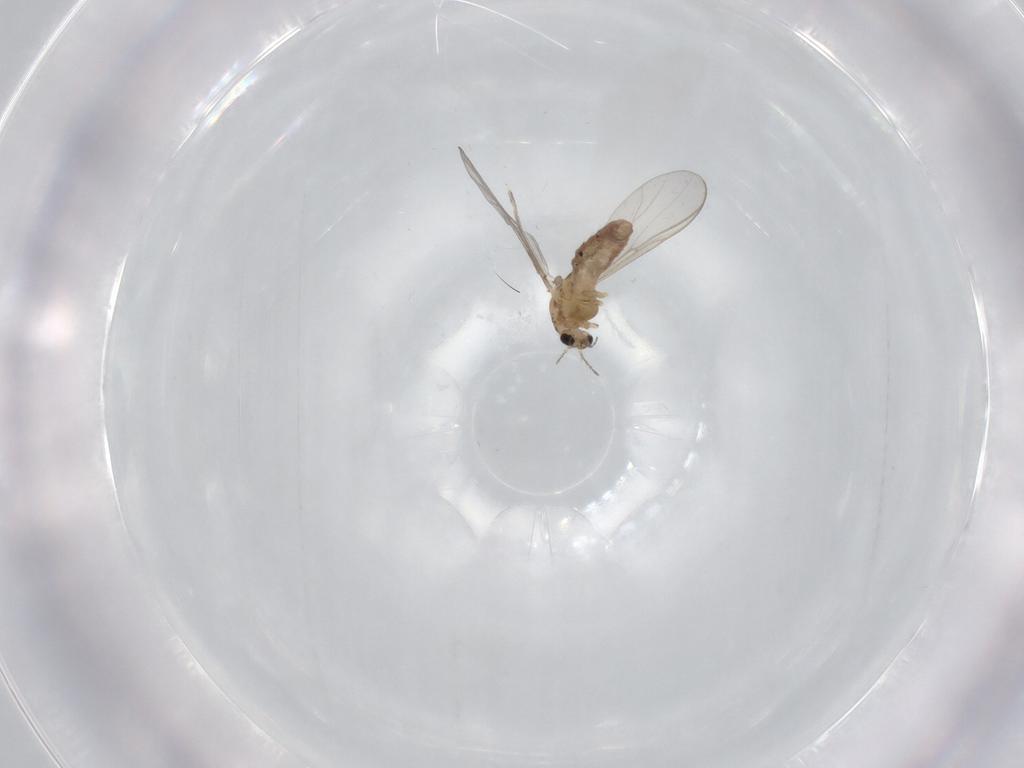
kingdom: Animalia
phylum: Arthropoda
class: Insecta
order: Diptera
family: Chironomidae
